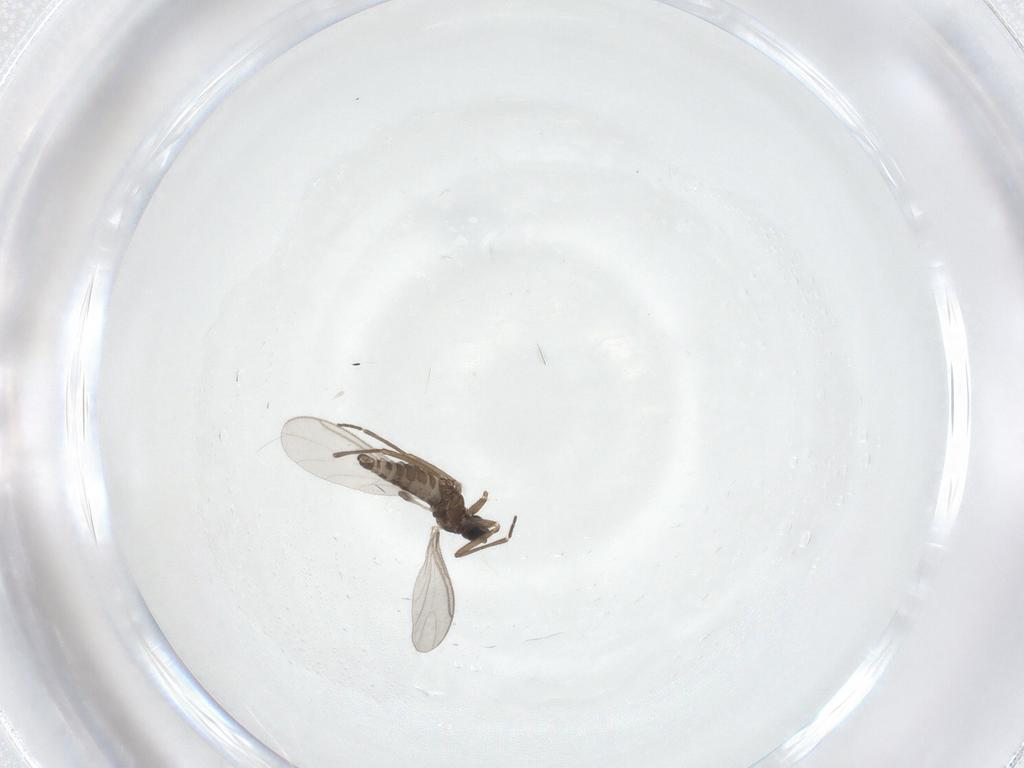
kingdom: Animalia
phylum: Arthropoda
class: Insecta
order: Diptera
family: Sciaridae
